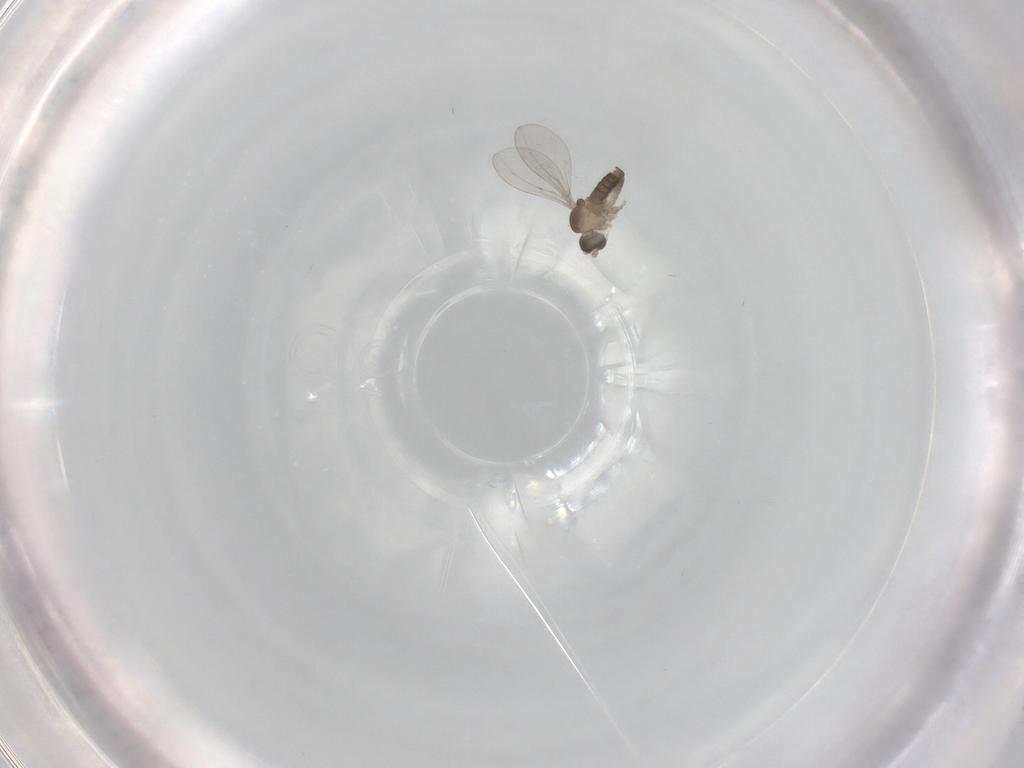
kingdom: Animalia
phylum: Arthropoda
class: Insecta
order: Diptera
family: Cecidomyiidae
